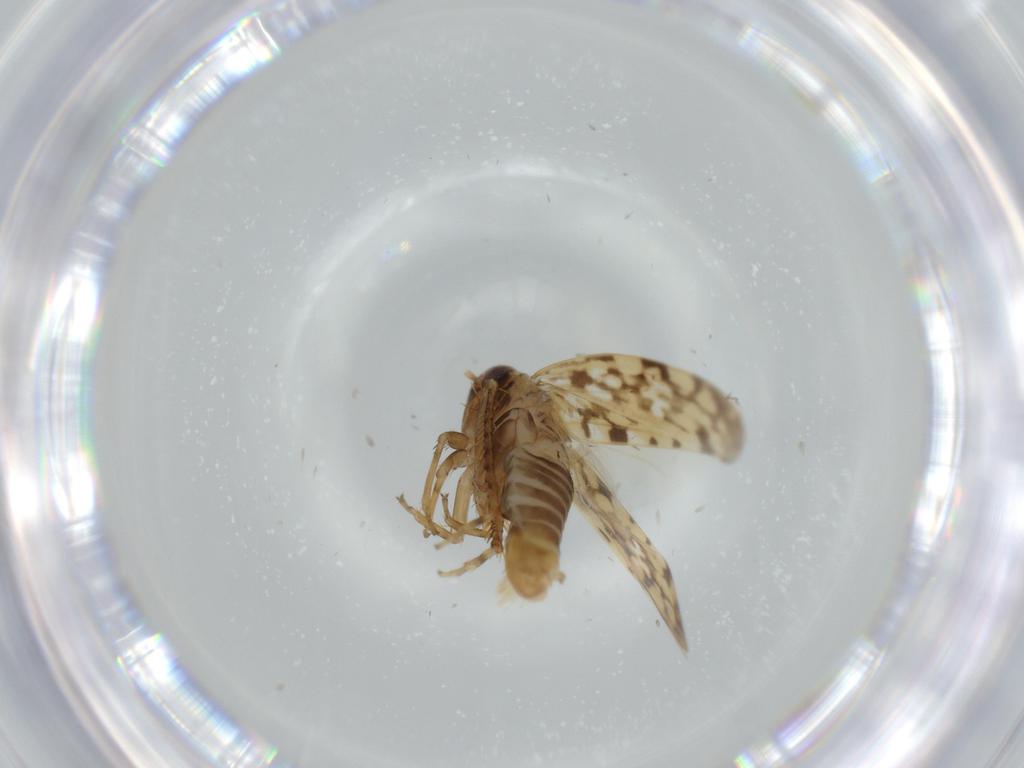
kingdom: Animalia
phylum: Arthropoda
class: Insecta
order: Hemiptera
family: Cicadellidae
